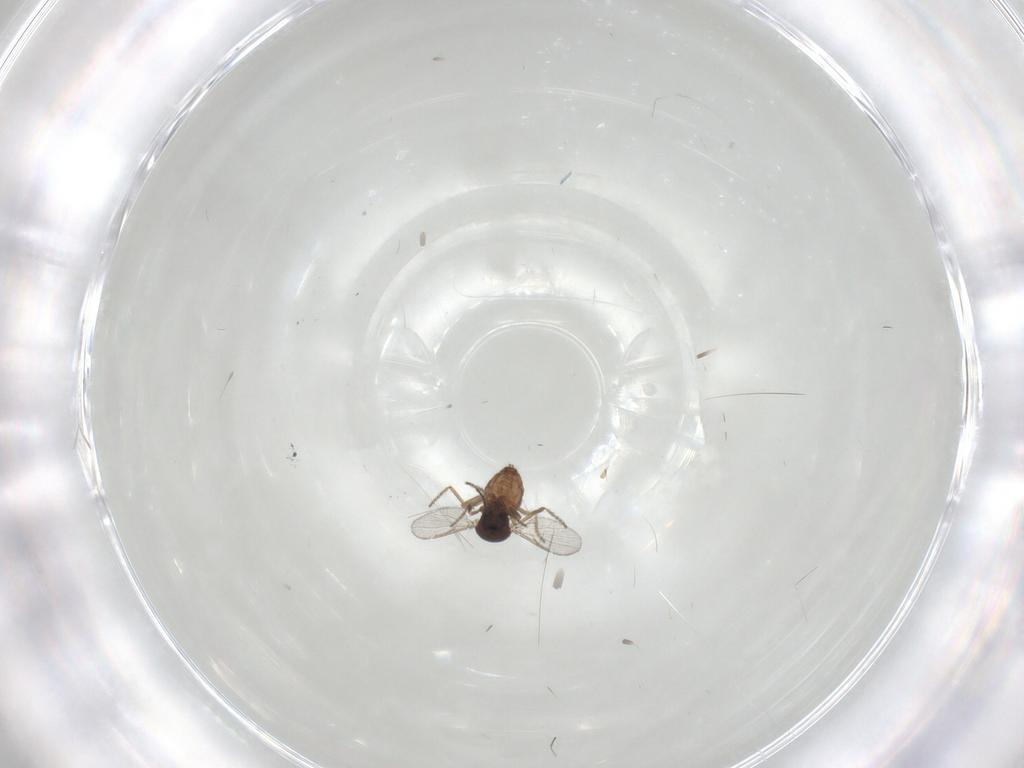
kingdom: Animalia
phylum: Arthropoda
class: Insecta
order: Diptera
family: Ceratopogonidae
